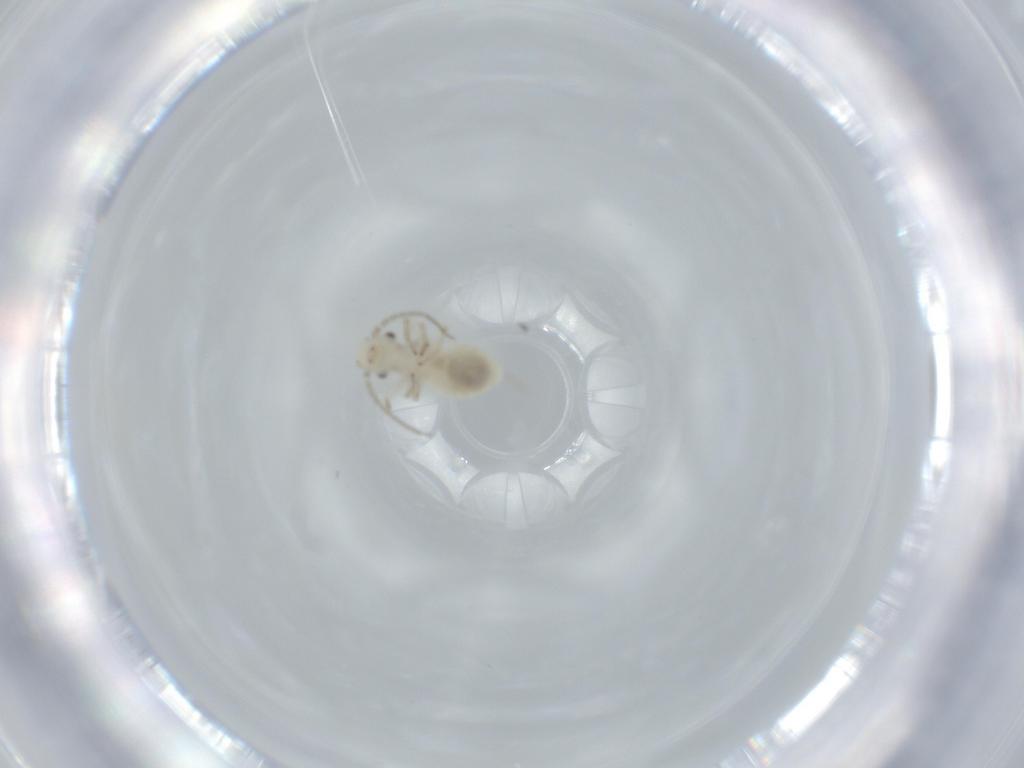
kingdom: Animalia
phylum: Arthropoda
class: Insecta
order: Psocodea
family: Caeciliusidae
